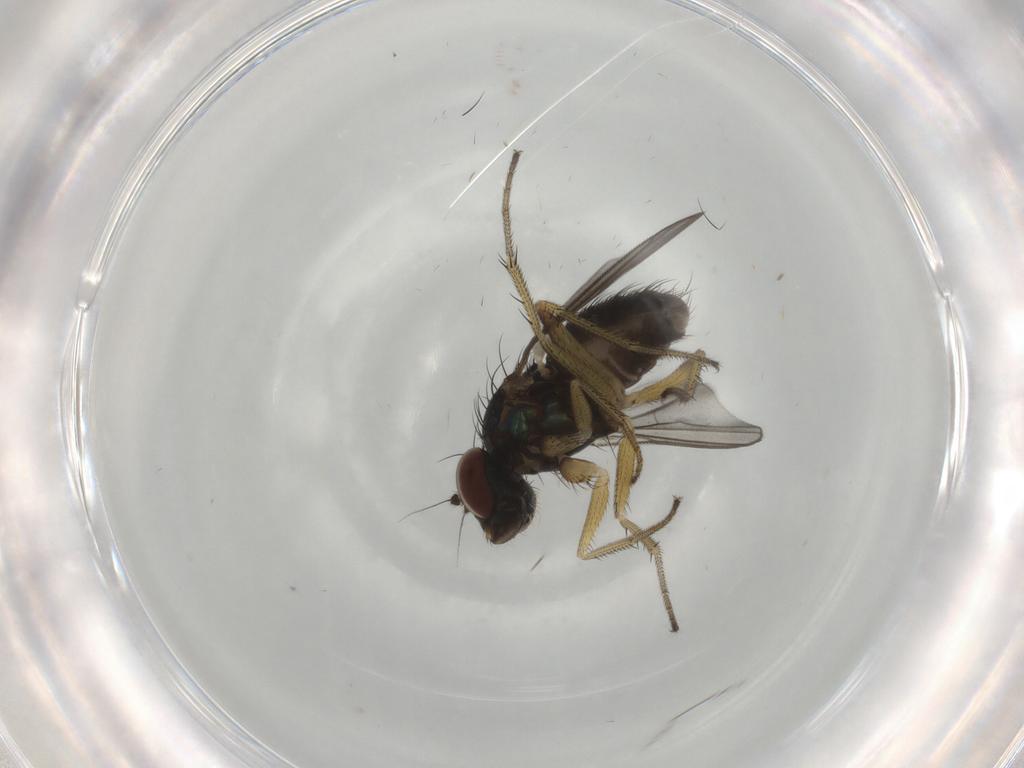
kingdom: Animalia
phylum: Arthropoda
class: Insecta
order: Diptera
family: Dolichopodidae
